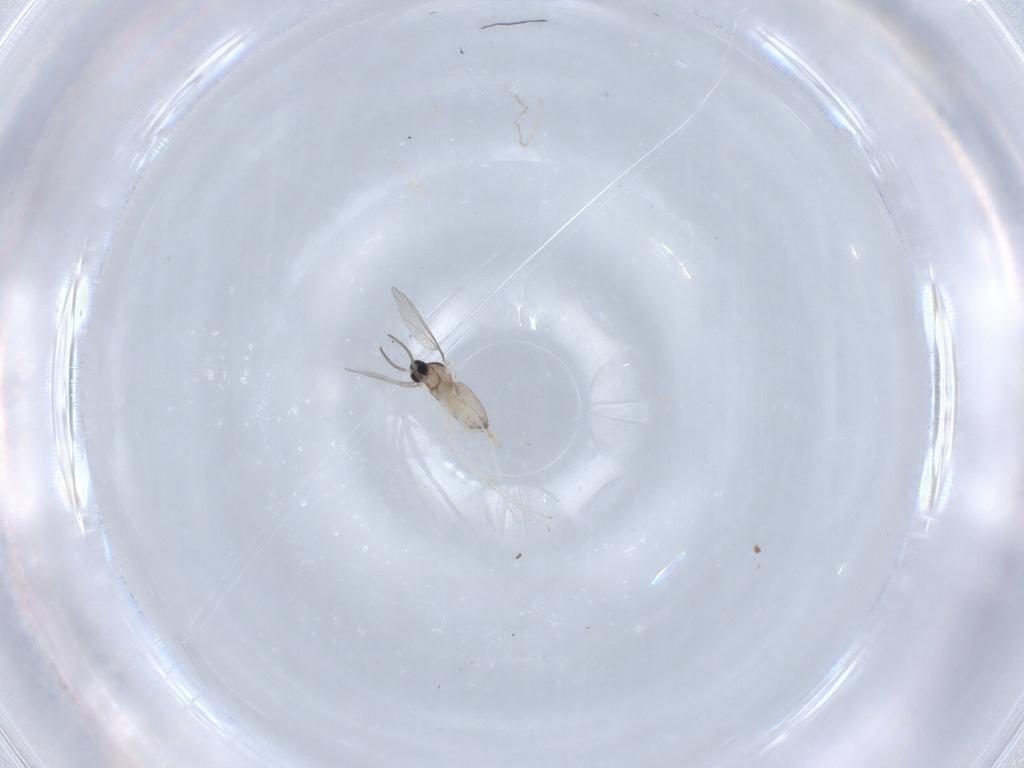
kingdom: Animalia
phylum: Arthropoda
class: Insecta
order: Diptera
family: Cecidomyiidae
